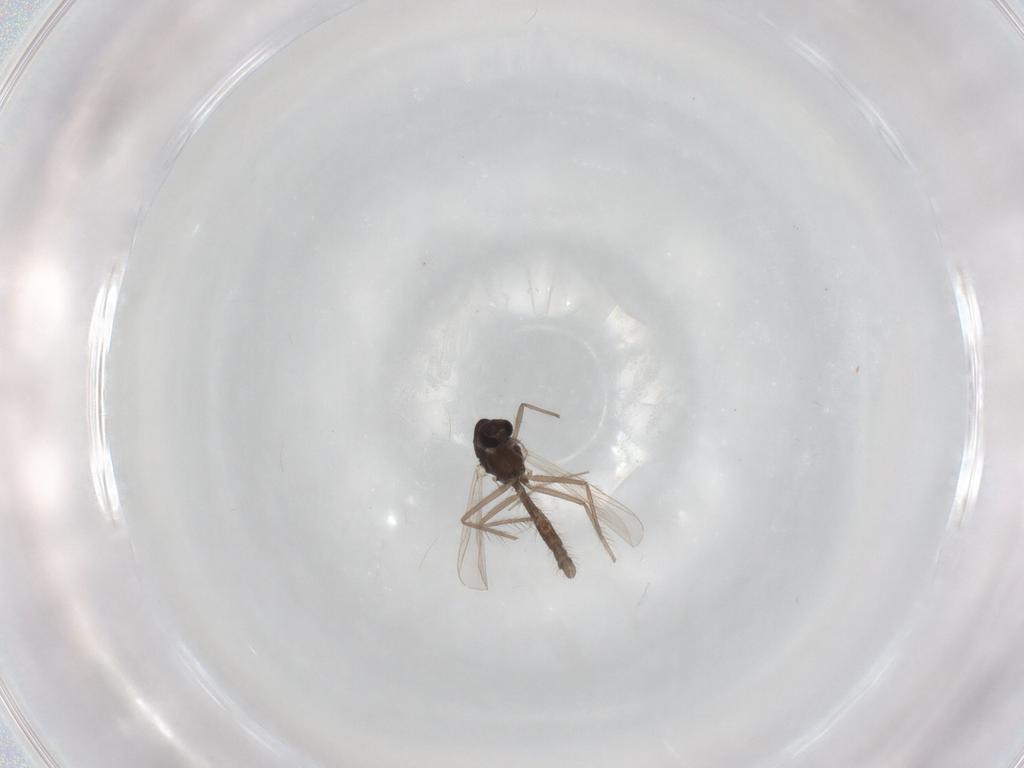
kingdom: Animalia
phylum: Arthropoda
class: Insecta
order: Diptera
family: Chironomidae
